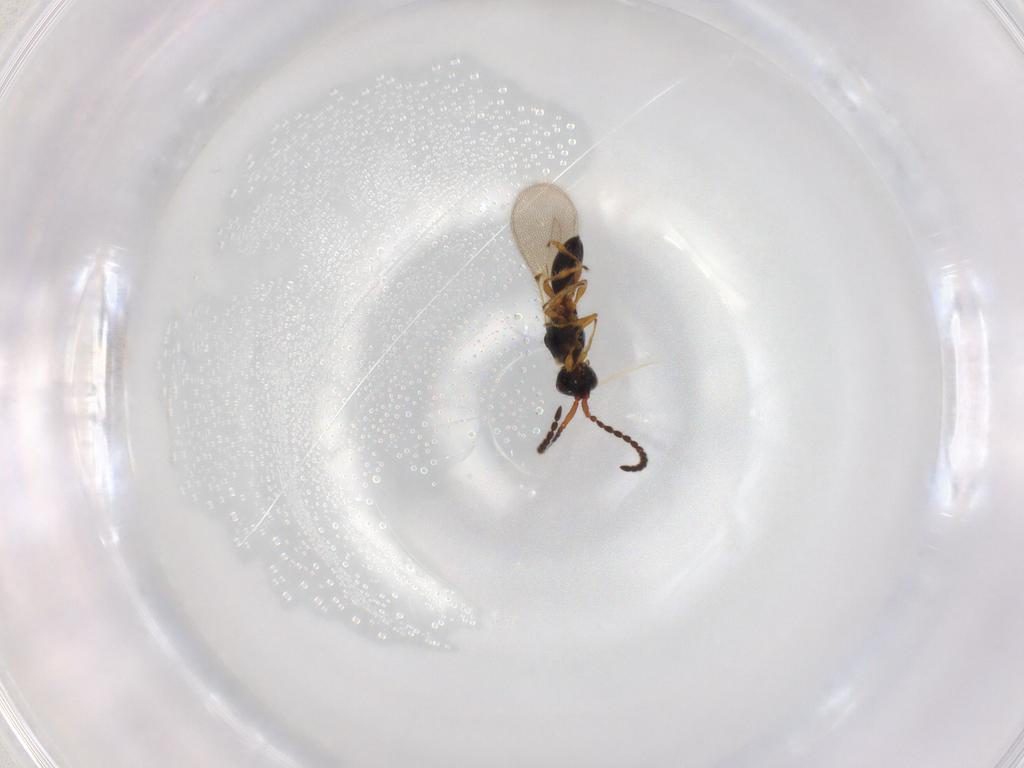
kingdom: Animalia
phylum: Arthropoda
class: Insecta
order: Hymenoptera
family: Diapriidae
